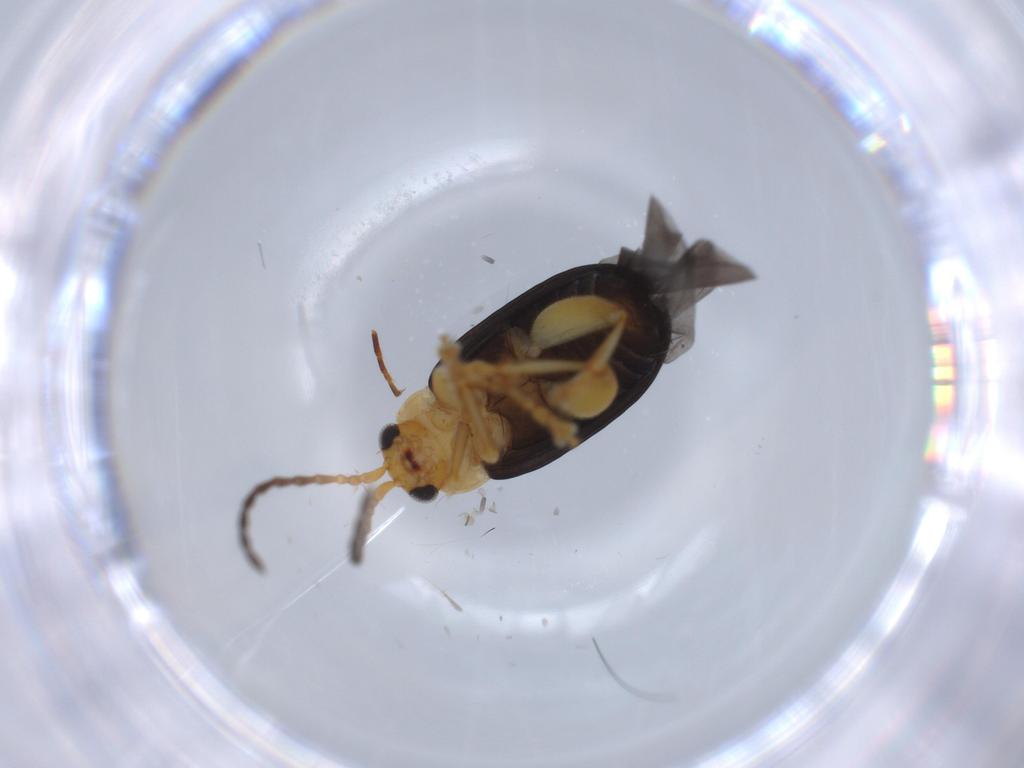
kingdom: Animalia
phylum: Arthropoda
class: Insecta
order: Coleoptera
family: Chrysomelidae
